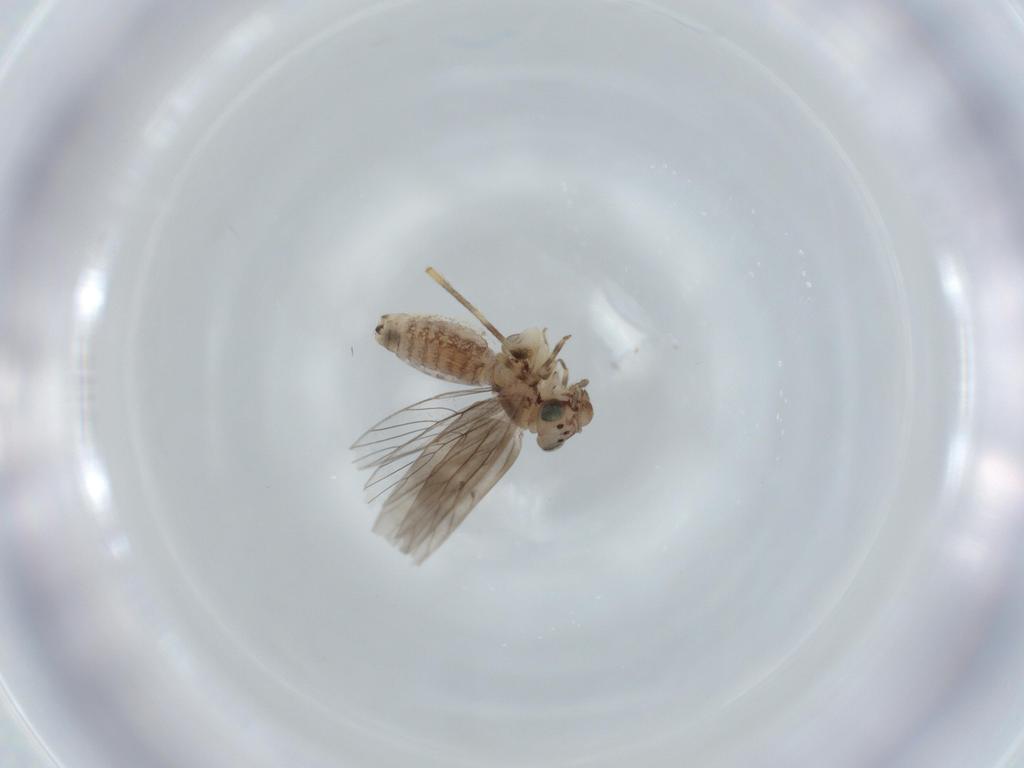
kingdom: Animalia
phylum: Arthropoda
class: Insecta
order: Psocodea
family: Lepidopsocidae
